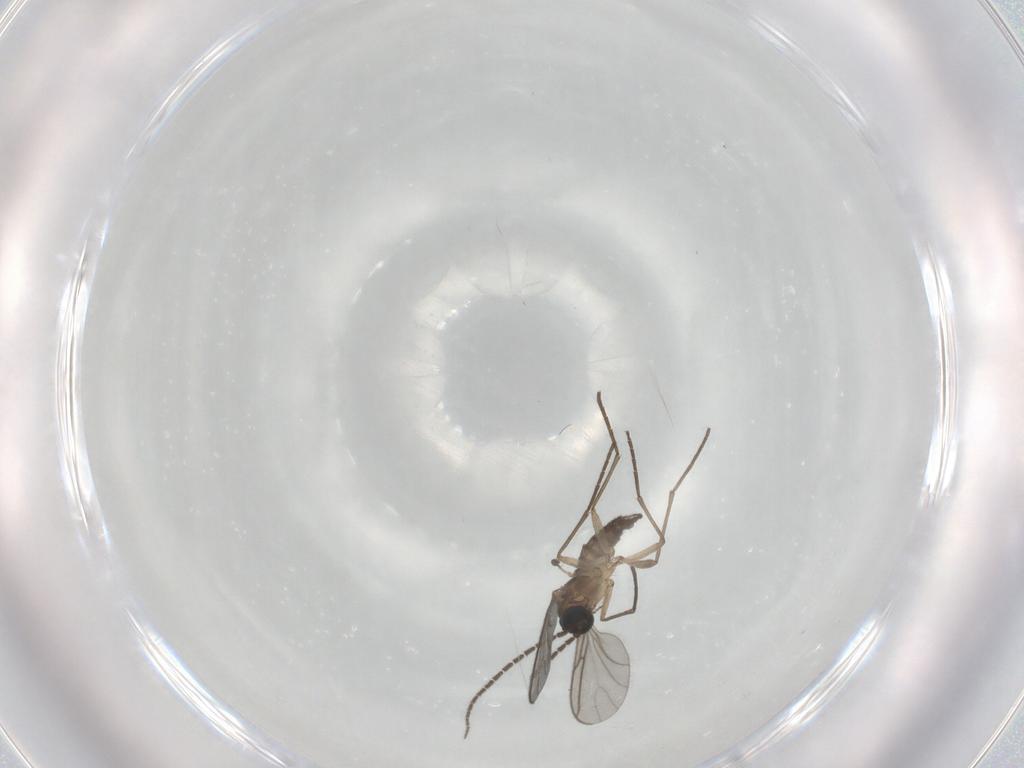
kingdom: Animalia
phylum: Arthropoda
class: Insecta
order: Diptera
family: Sciaridae
